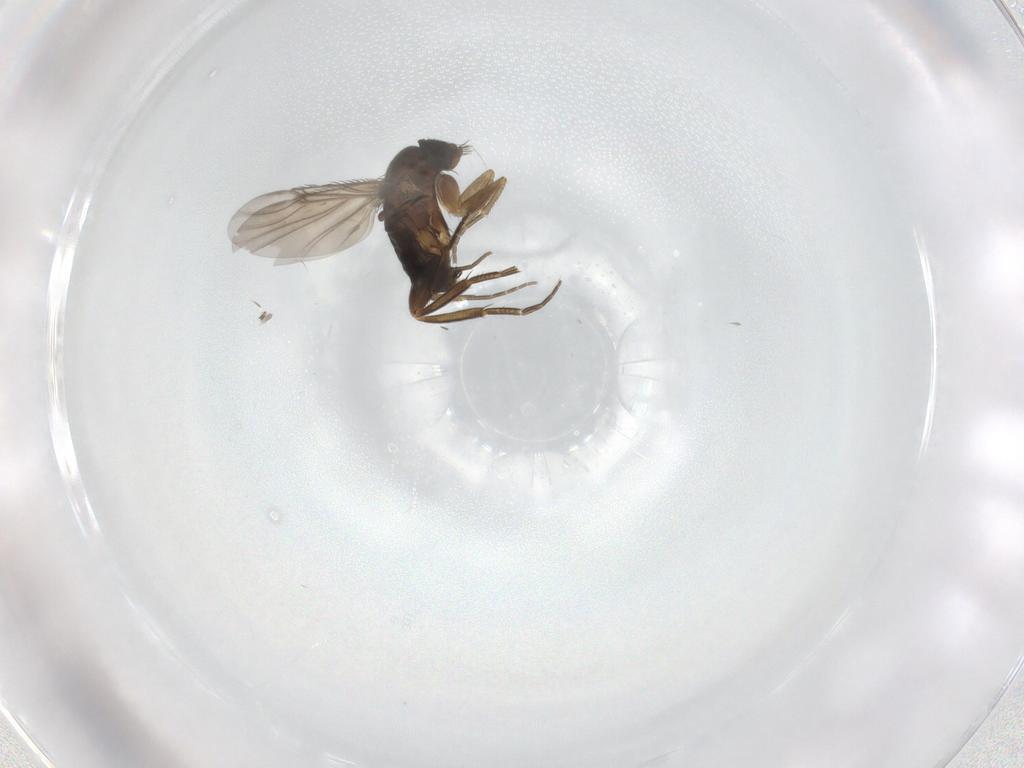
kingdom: Animalia
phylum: Arthropoda
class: Insecta
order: Diptera
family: Phoridae
